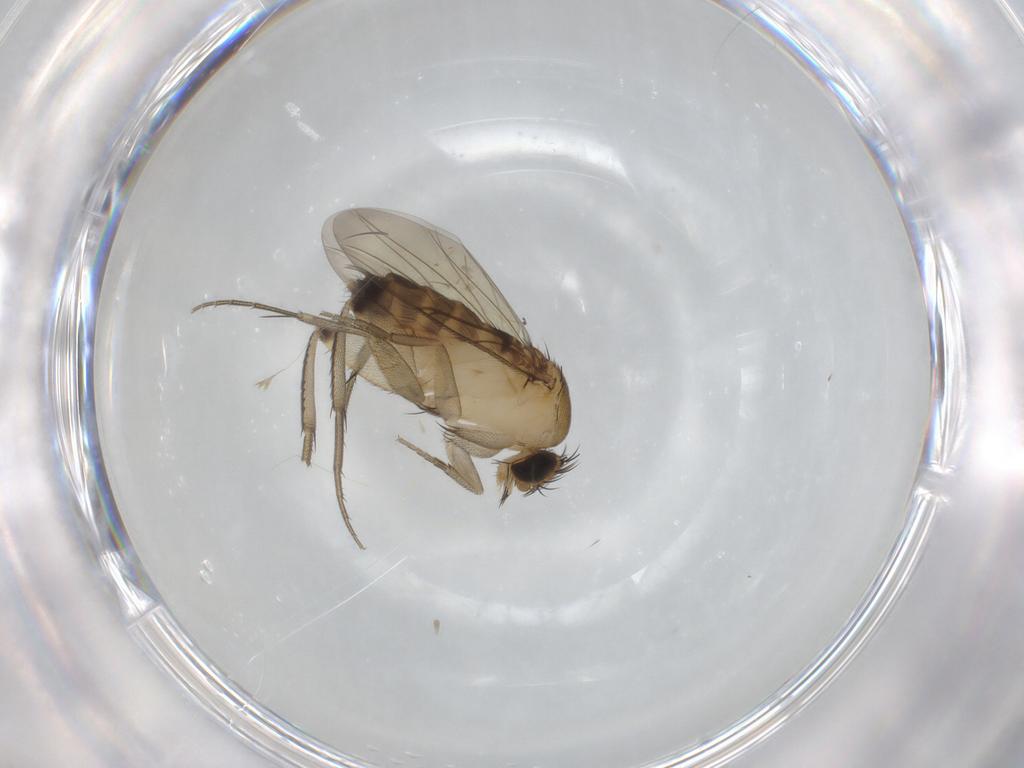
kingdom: Animalia
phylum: Arthropoda
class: Insecta
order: Diptera
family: Phoridae
